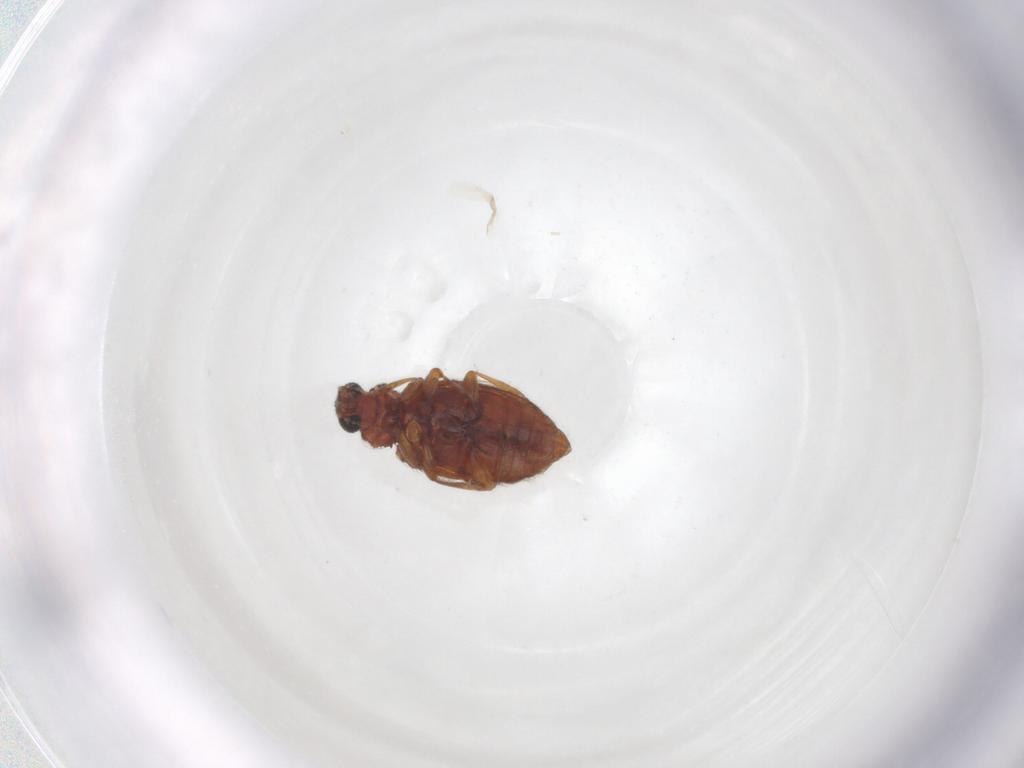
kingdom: Animalia
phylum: Arthropoda
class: Insecta
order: Coleoptera
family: Latridiidae
